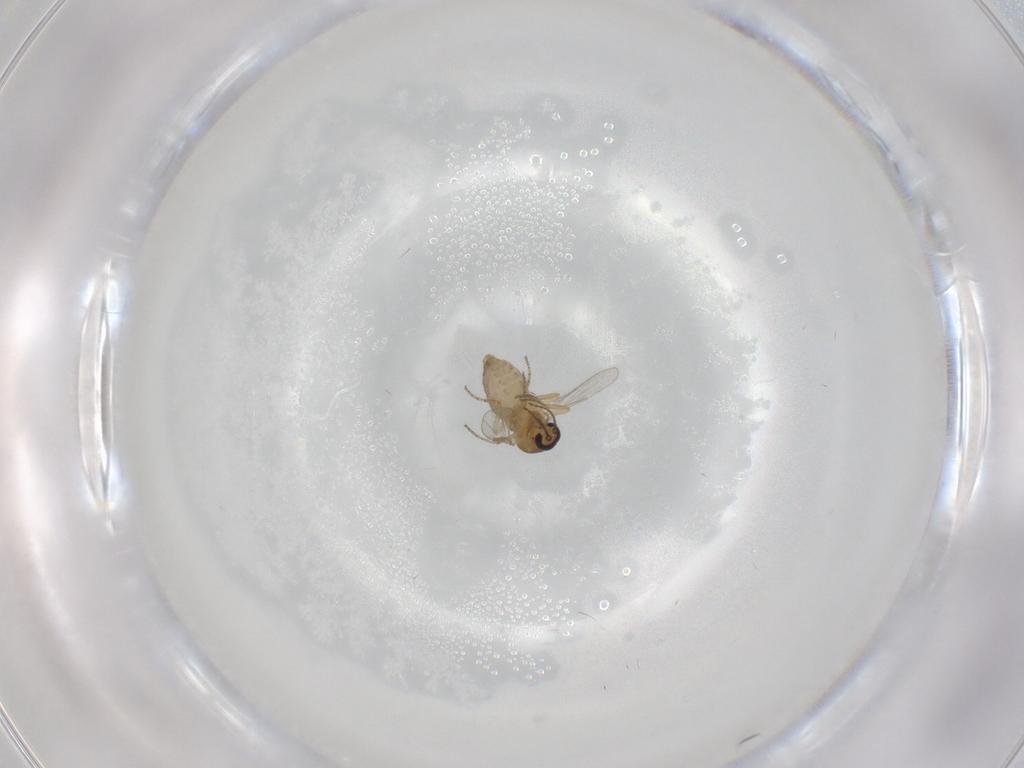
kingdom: Animalia
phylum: Arthropoda
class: Insecta
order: Diptera
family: Ceratopogonidae
